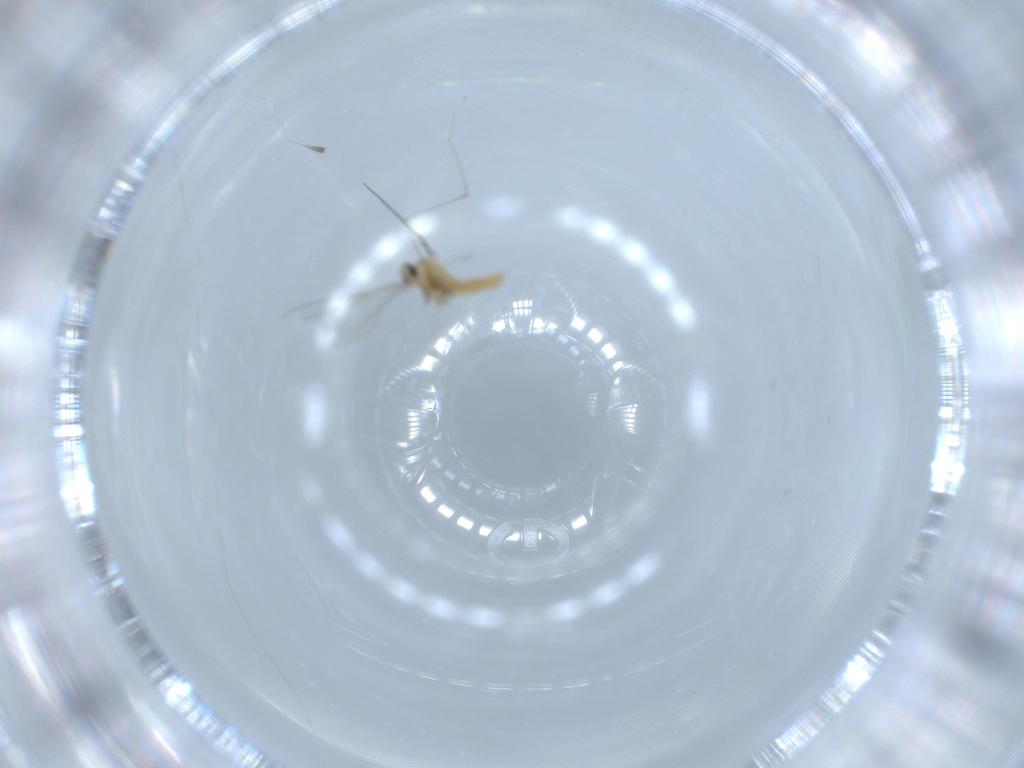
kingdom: Animalia
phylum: Arthropoda
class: Insecta
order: Diptera
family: Cecidomyiidae
